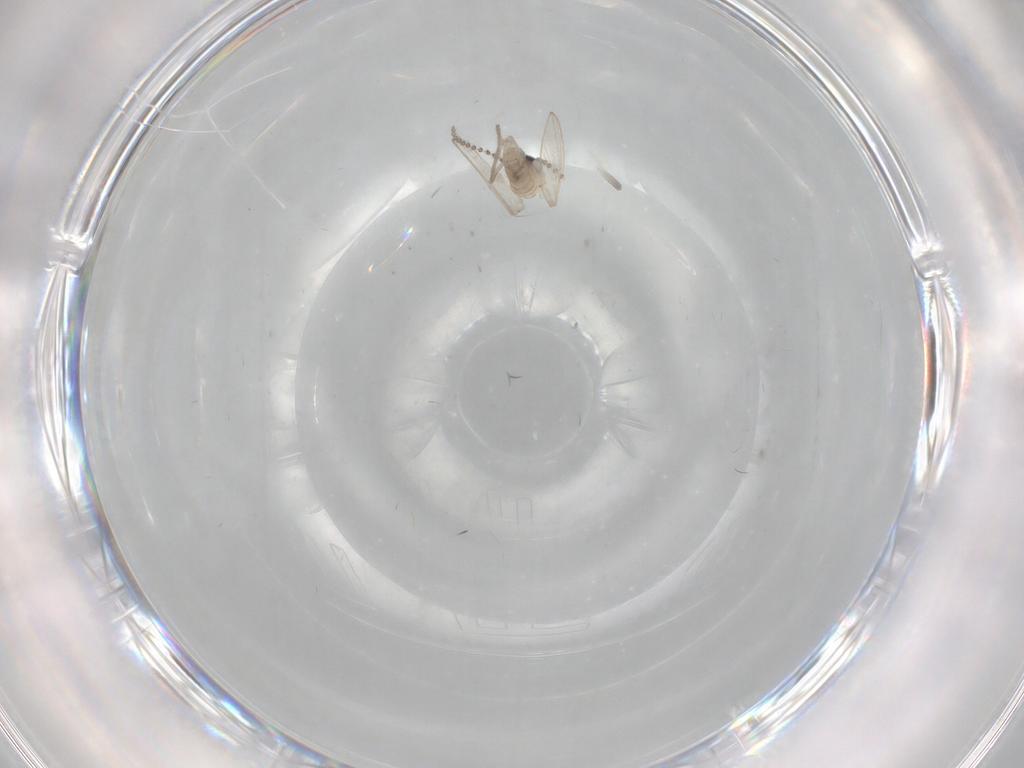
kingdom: Animalia
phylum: Arthropoda
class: Insecta
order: Diptera
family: Psychodidae
